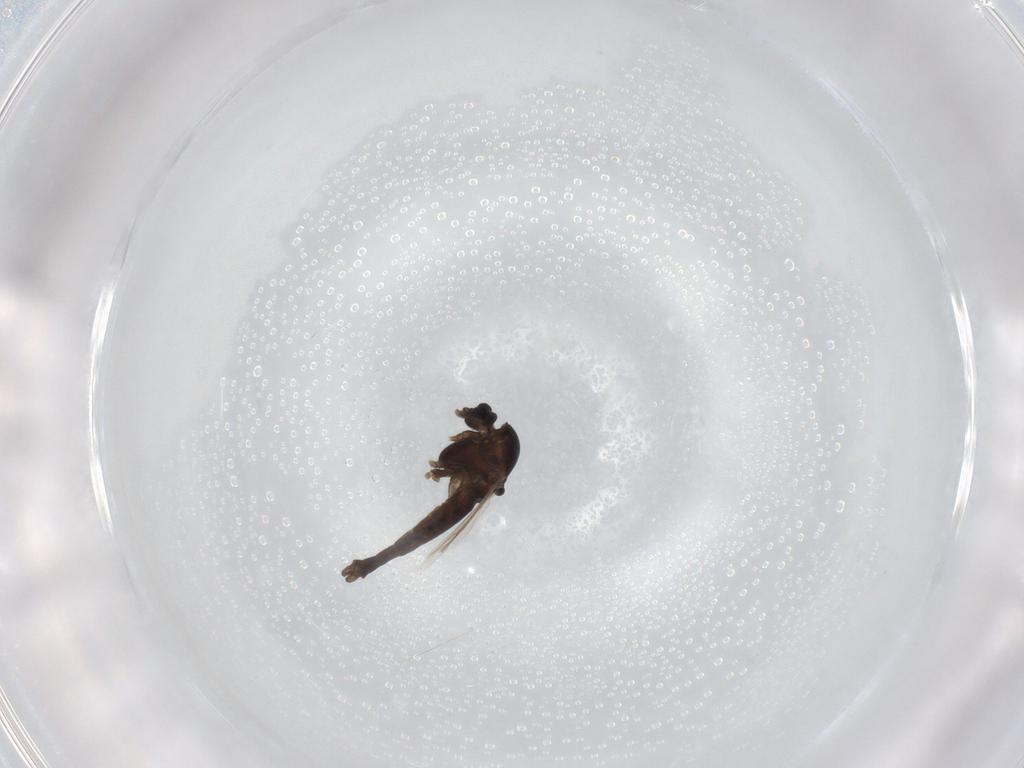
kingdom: Animalia
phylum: Arthropoda
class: Insecta
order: Diptera
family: Chironomidae
